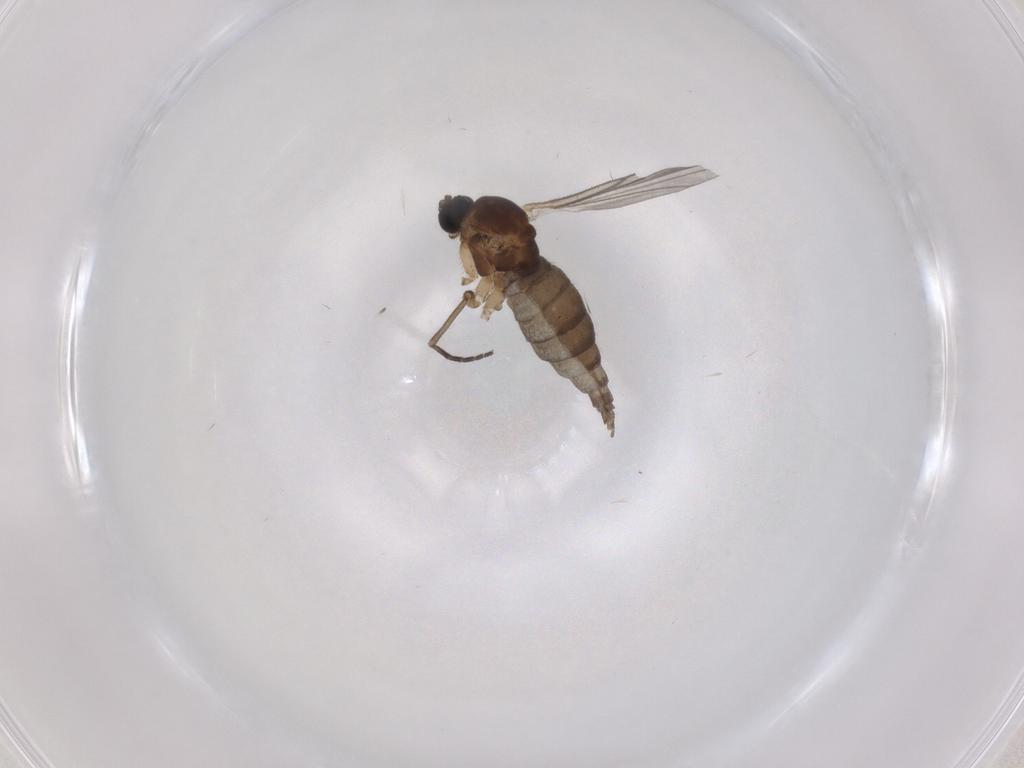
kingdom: Animalia
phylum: Arthropoda
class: Insecta
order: Diptera
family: Sciaridae
